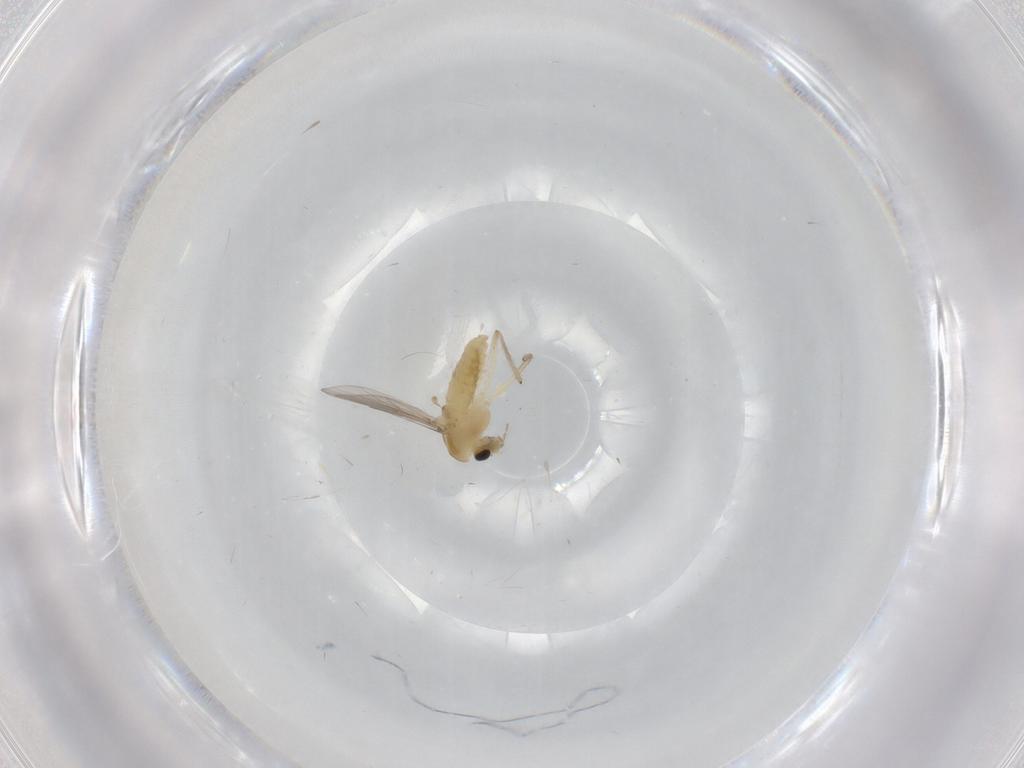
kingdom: Animalia
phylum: Arthropoda
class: Insecta
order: Diptera
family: Chironomidae
